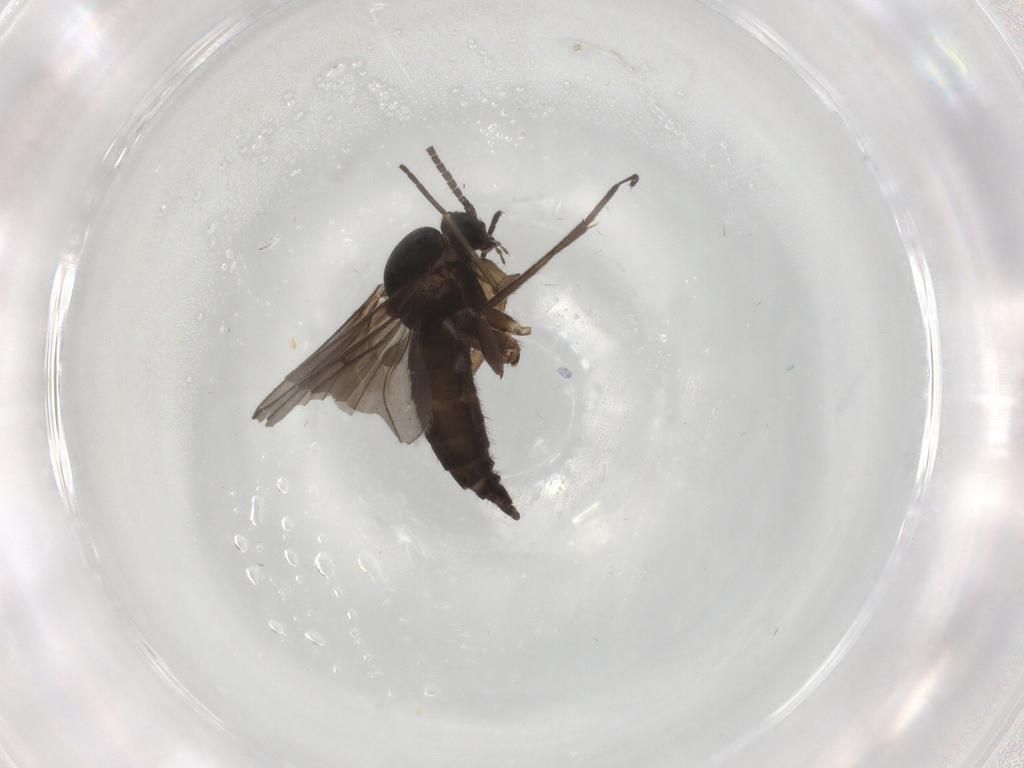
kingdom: Animalia
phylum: Arthropoda
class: Insecta
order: Diptera
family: Sciaridae
